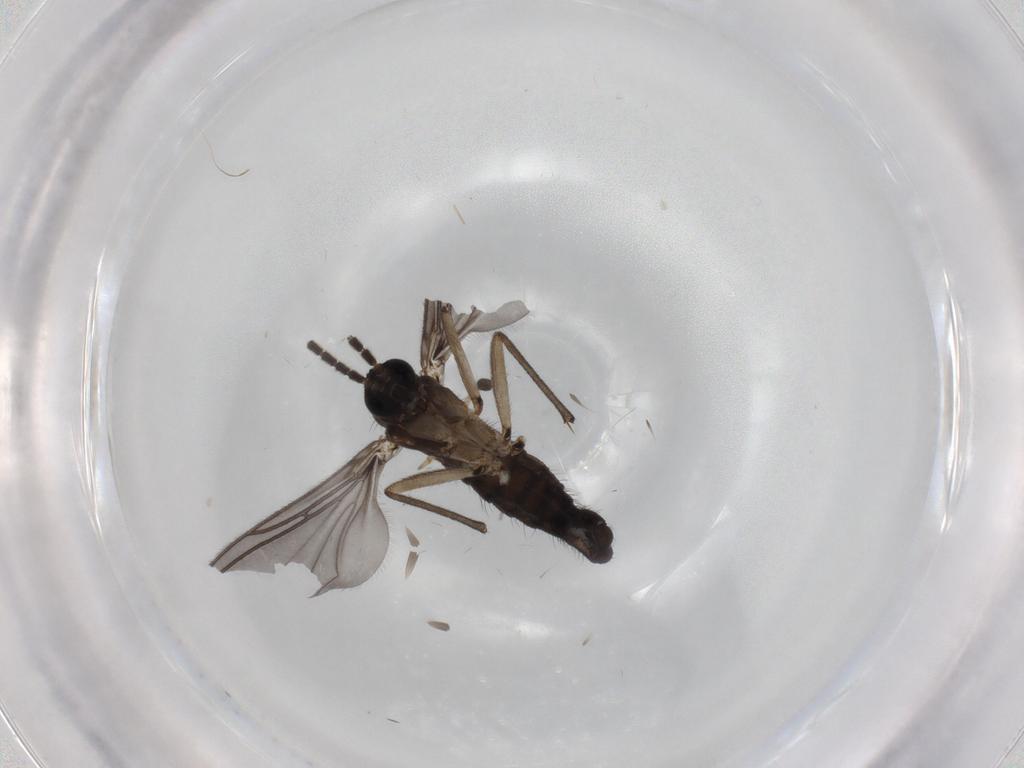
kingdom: Animalia
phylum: Arthropoda
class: Insecta
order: Diptera
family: Sciaridae
